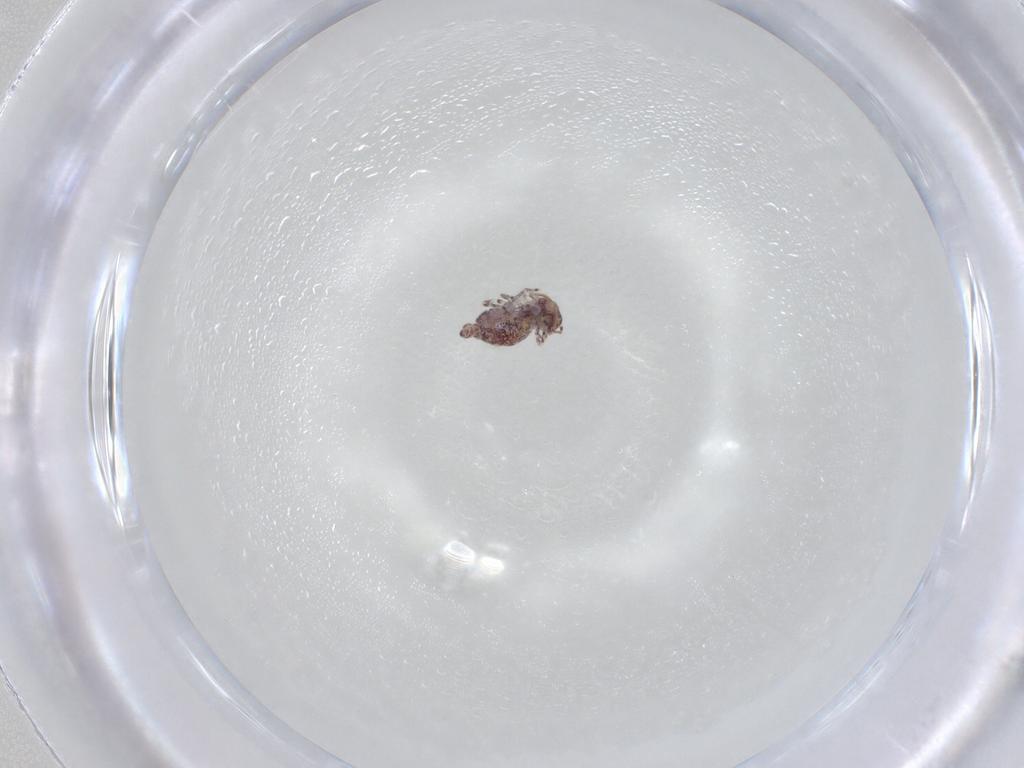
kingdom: Animalia
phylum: Arthropoda
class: Collembola
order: Symphypleona
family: Bourletiellidae
